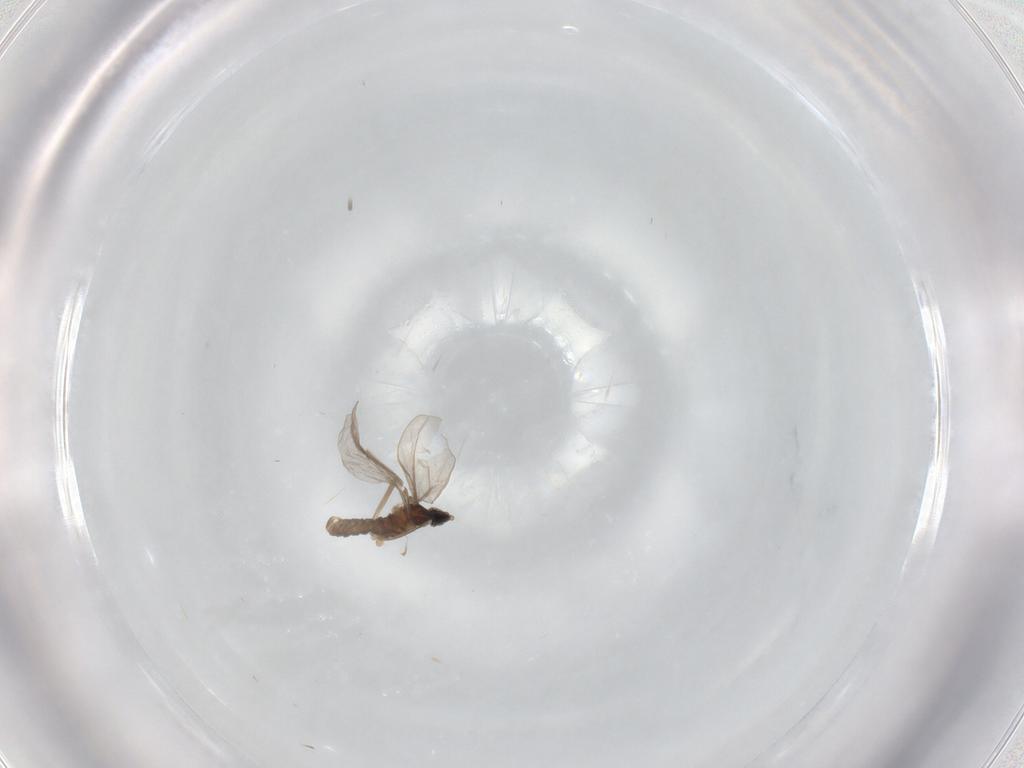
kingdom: Animalia
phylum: Arthropoda
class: Insecta
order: Diptera
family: Cecidomyiidae
